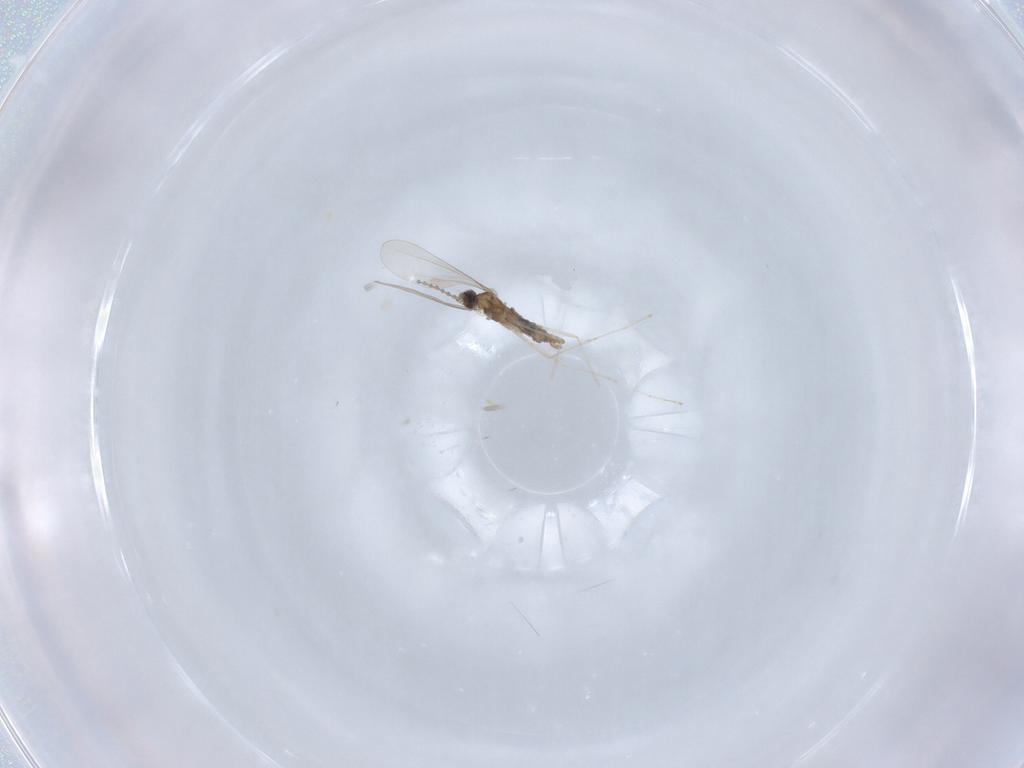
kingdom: Animalia
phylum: Arthropoda
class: Insecta
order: Diptera
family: Cecidomyiidae
